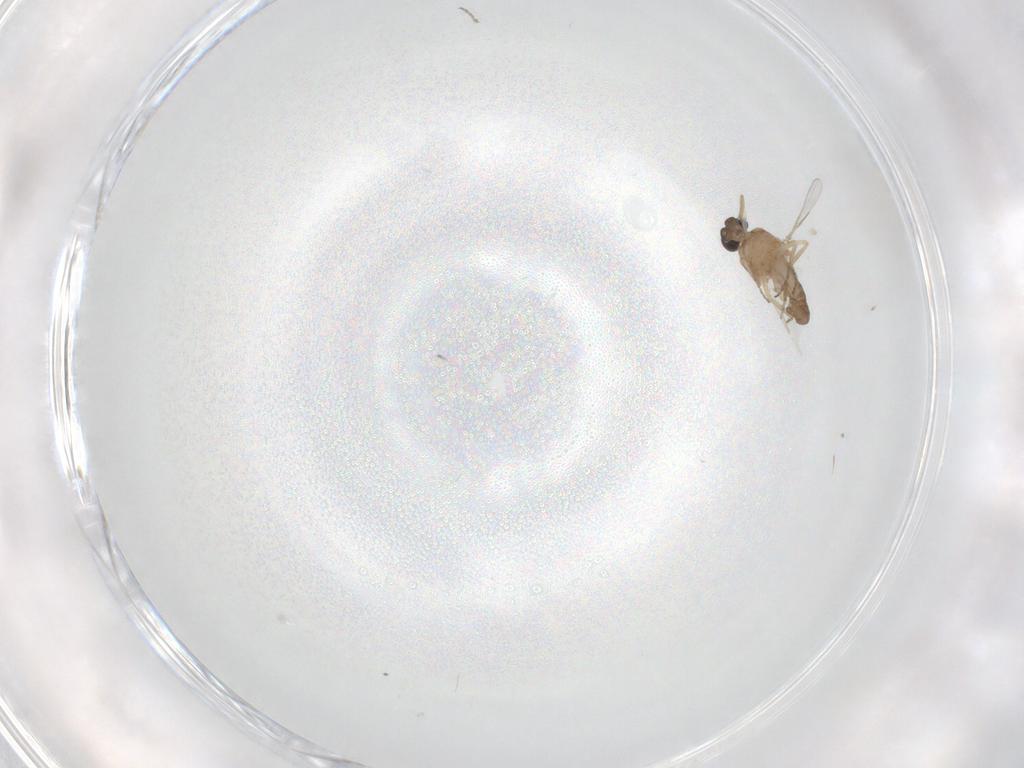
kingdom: Animalia
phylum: Arthropoda
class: Insecta
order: Diptera
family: Ceratopogonidae
